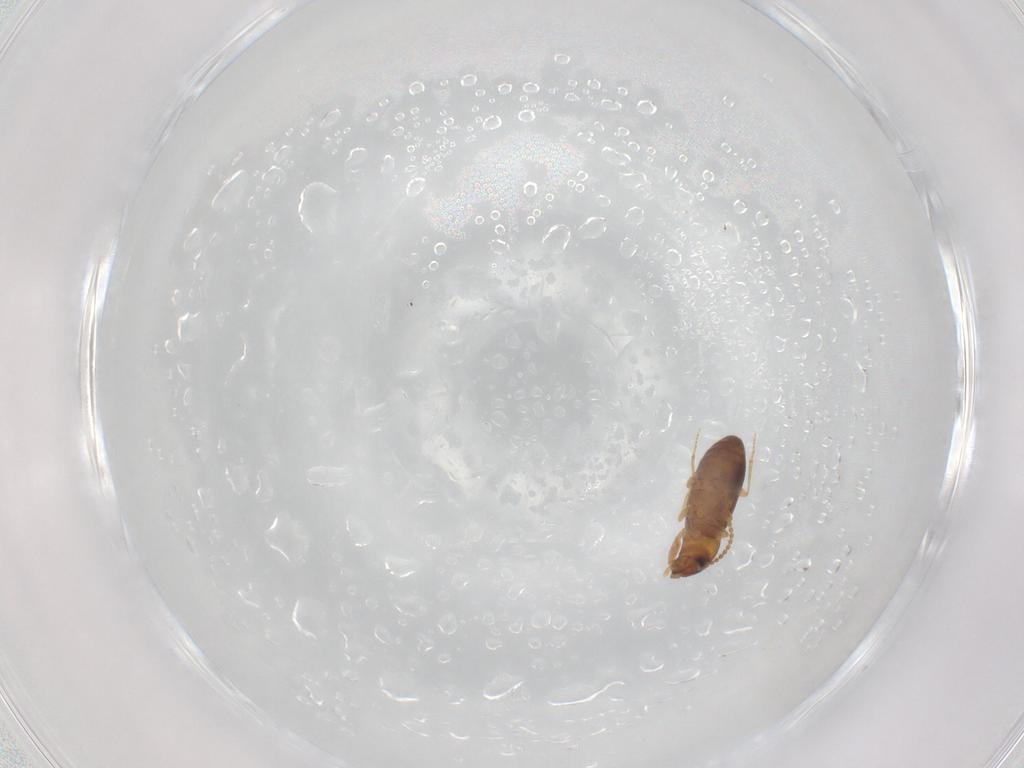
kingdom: Animalia
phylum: Arthropoda
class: Insecta
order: Coleoptera
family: Carabidae
